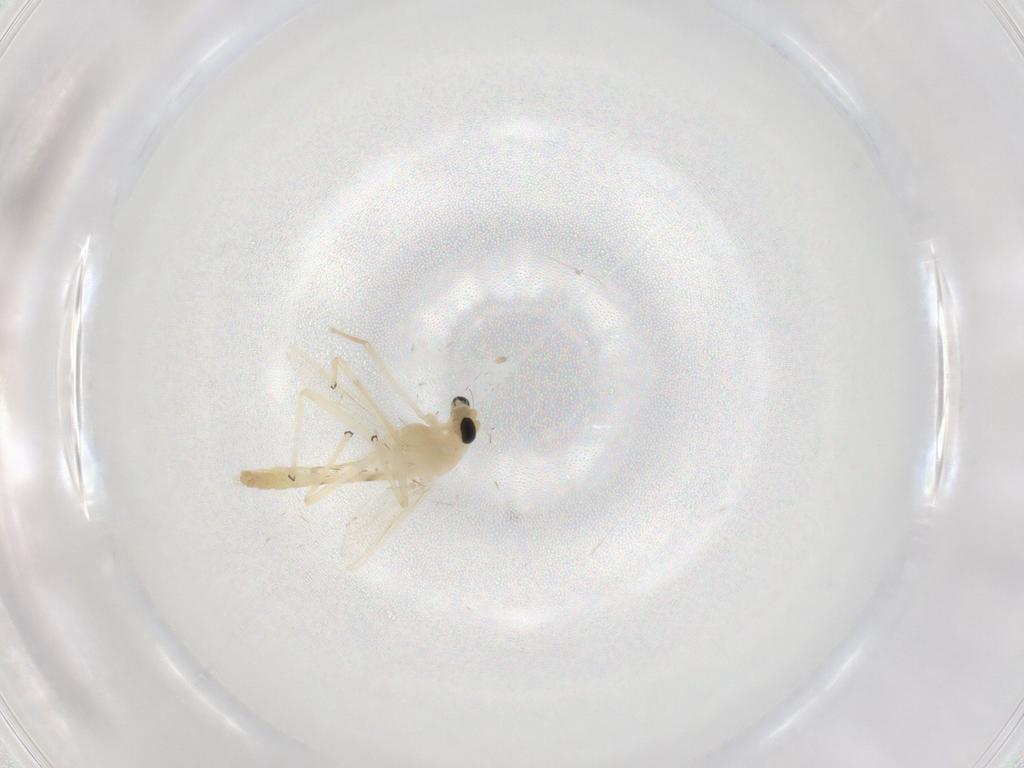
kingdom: Animalia
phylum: Arthropoda
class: Insecta
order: Diptera
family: Chironomidae
